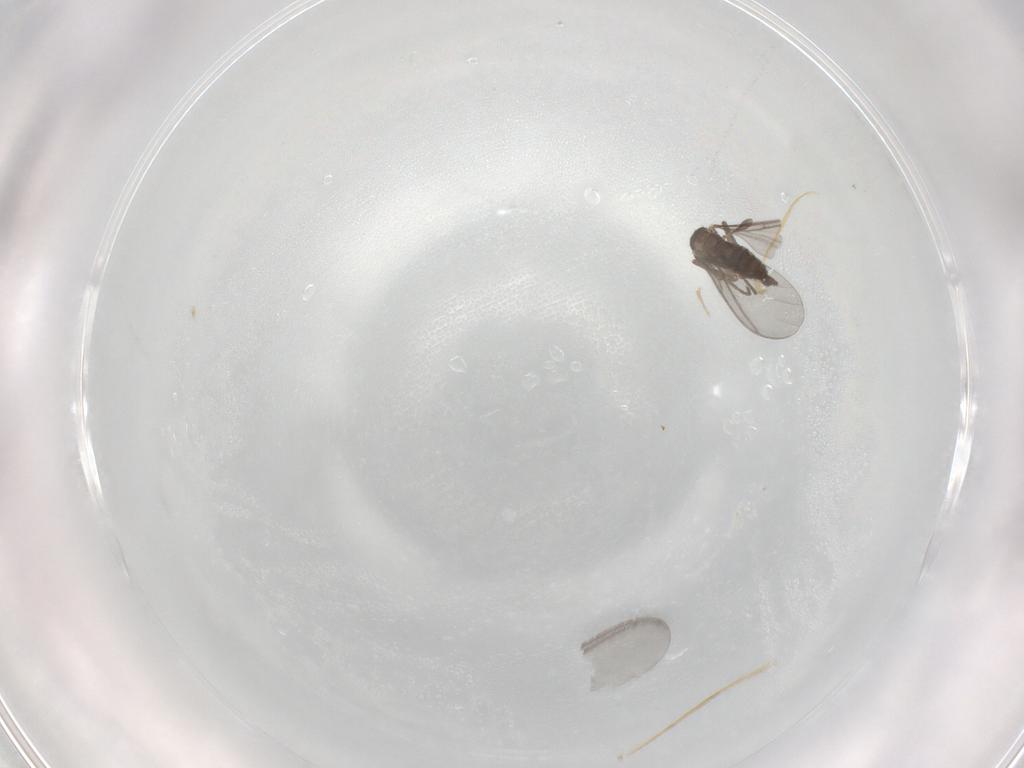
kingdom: Animalia
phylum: Arthropoda
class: Insecta
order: Diptera
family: Sciaridae
